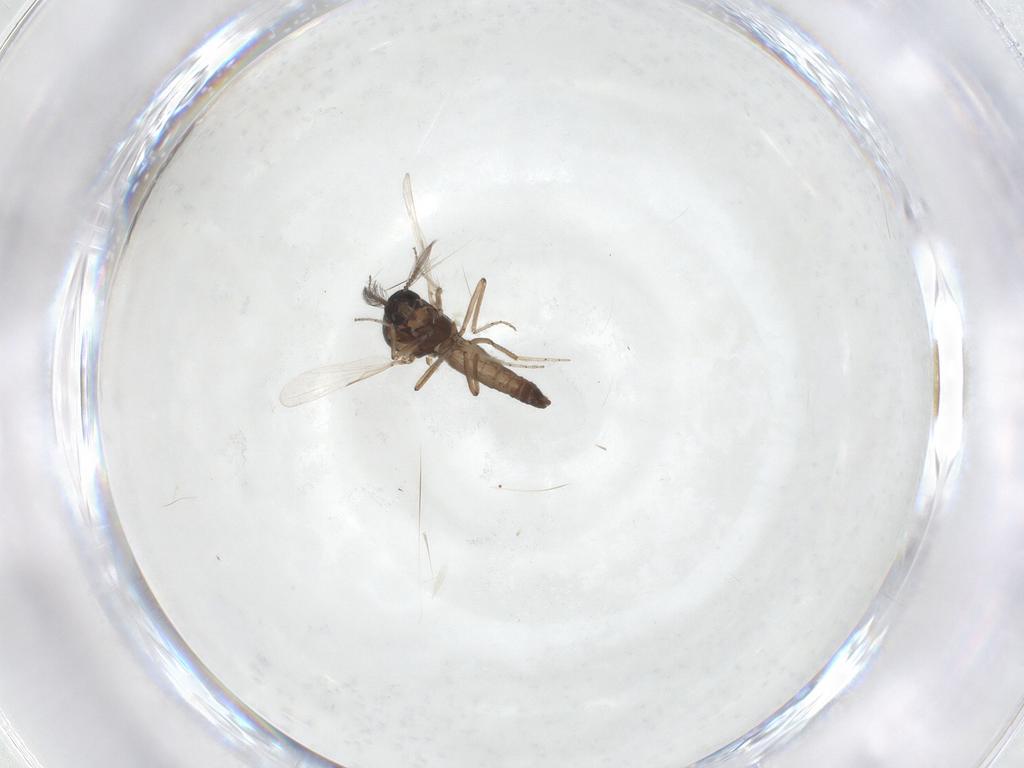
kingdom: Animalia
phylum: Arthropoda
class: Insecta
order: Diptera
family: Ceratopogonidae
